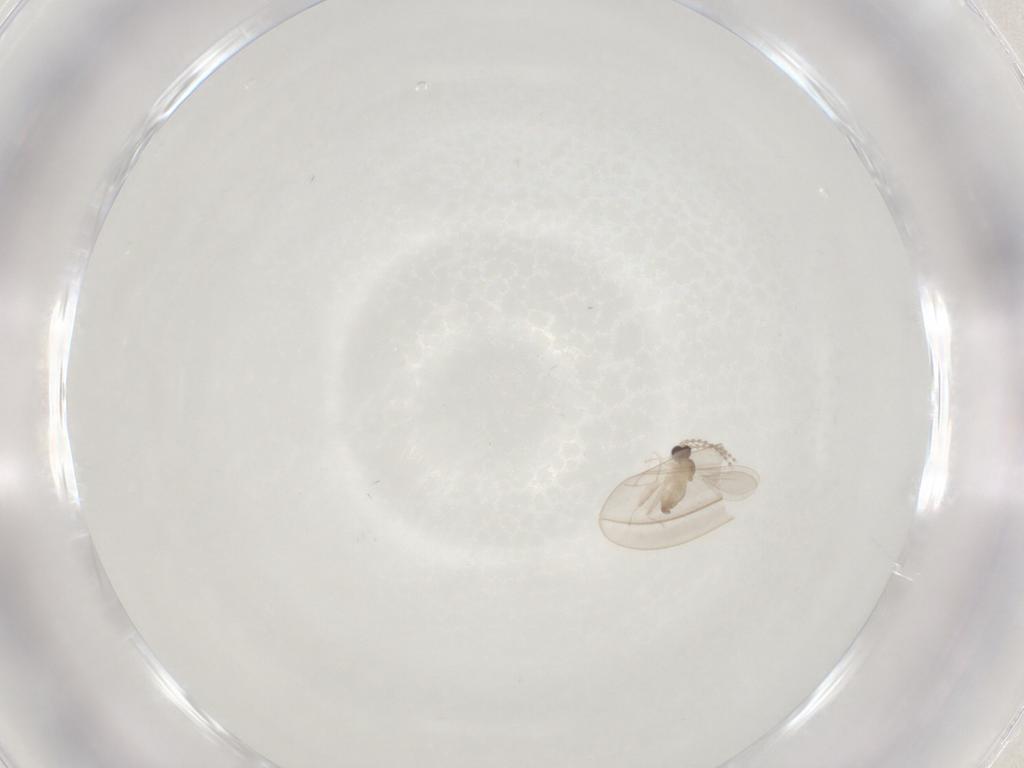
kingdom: Animalia
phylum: Arthropoda
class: Insecta
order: Diptera
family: Cecidomyiidae
